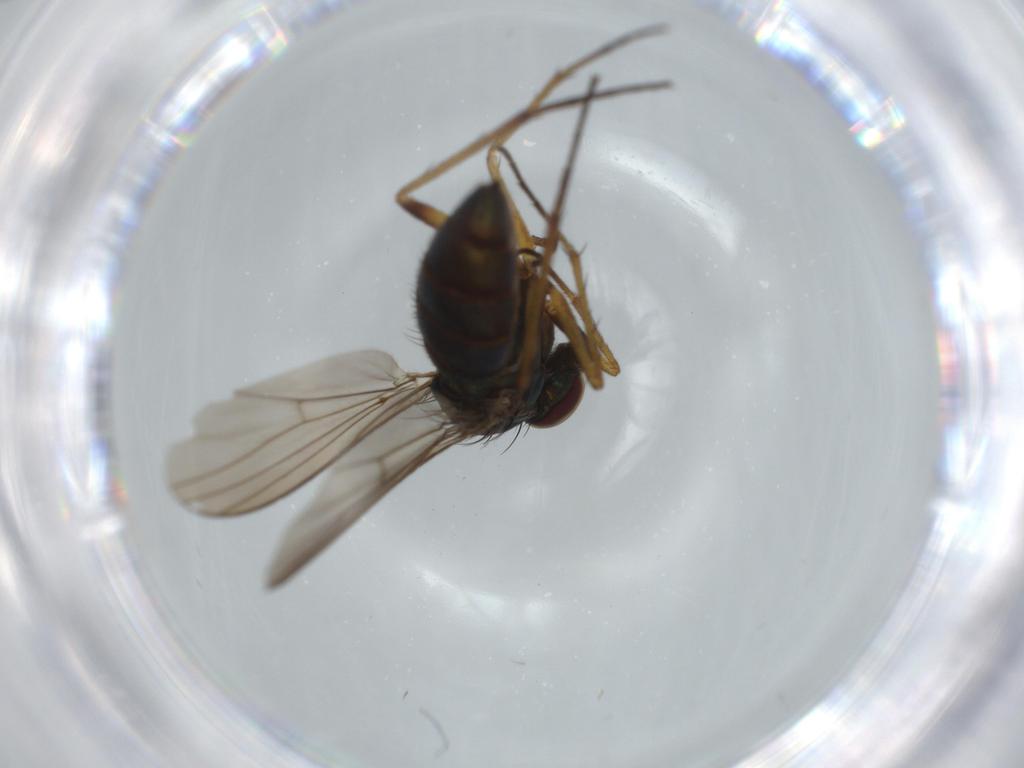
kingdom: Animalia
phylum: Arthropoda
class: Insecta
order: Diptera
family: Dolichopodidae
